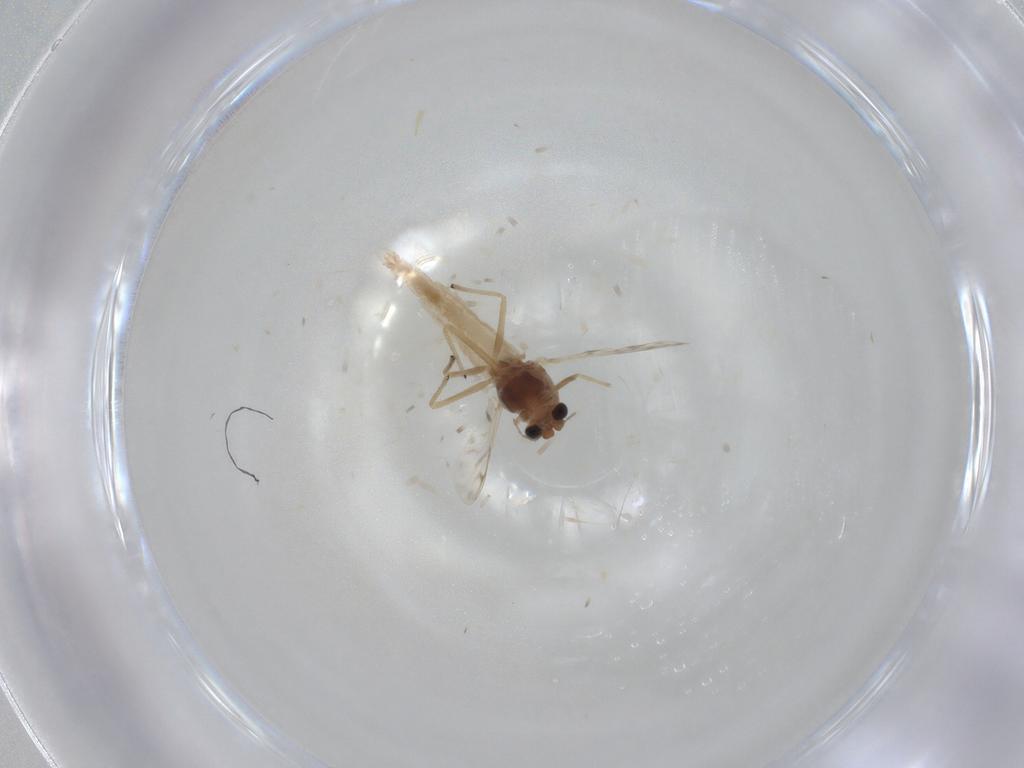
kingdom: Animalia
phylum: Arthropoda
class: Insecta
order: Diptera
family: Chironomidae
